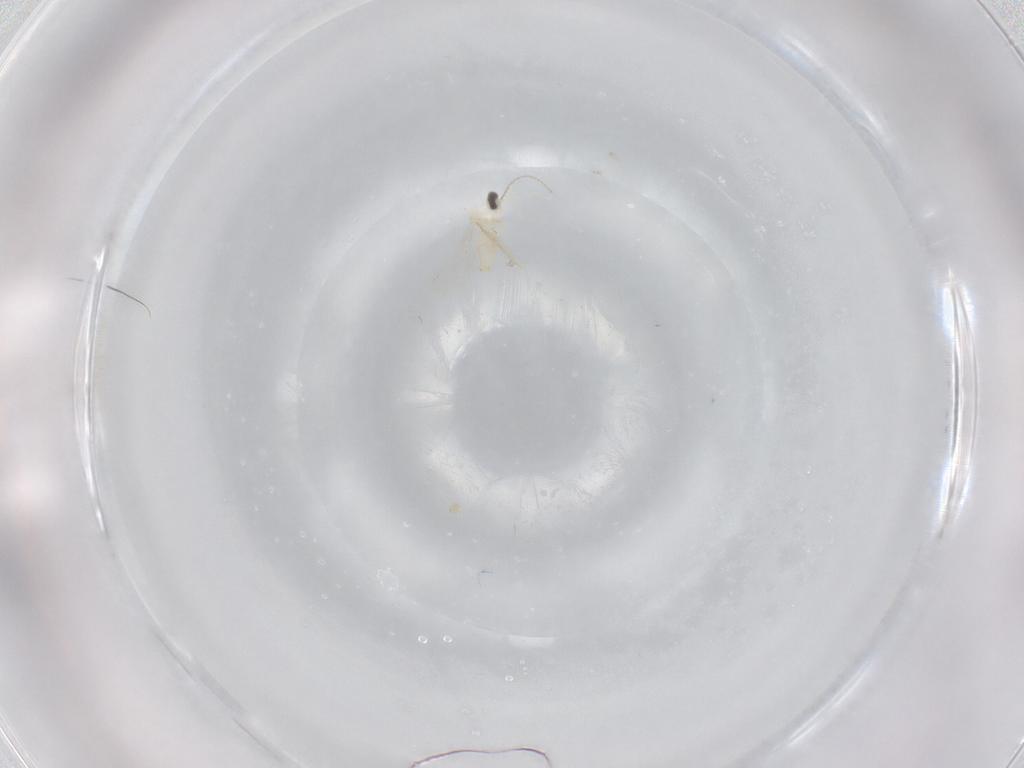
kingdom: Animalia
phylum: Arthropoda
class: Insecta
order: Diptera
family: Cecidomyiidae
